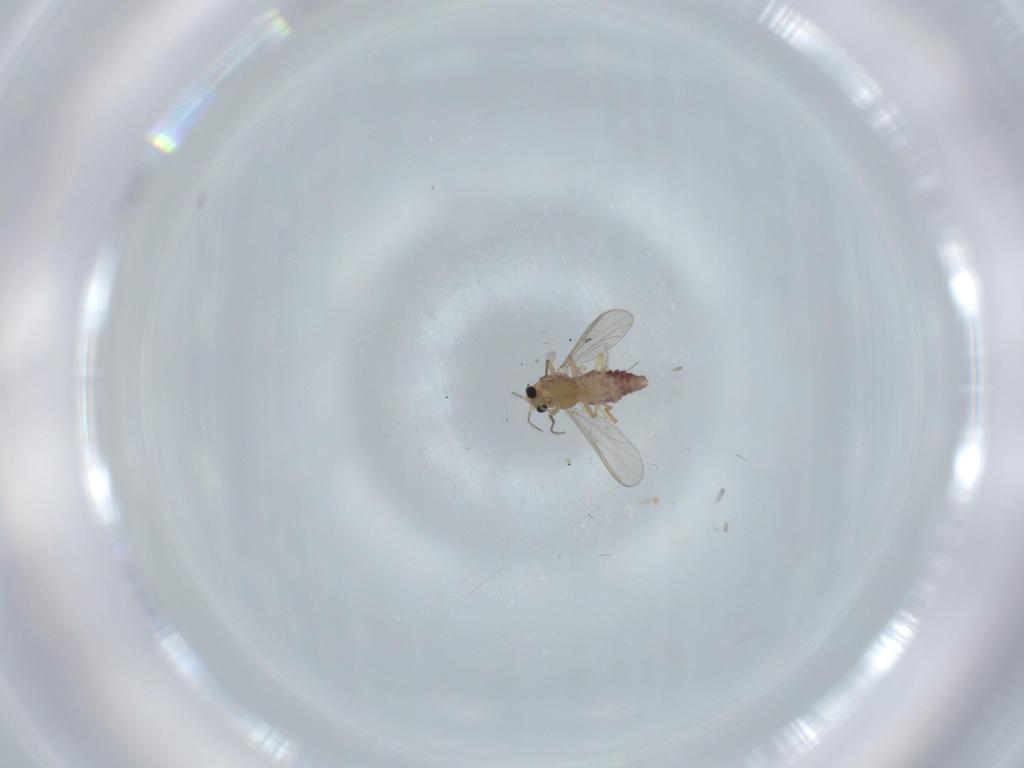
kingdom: Animalia
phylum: Arthropoda
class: Insecta
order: Diptera
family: Chironomidae
